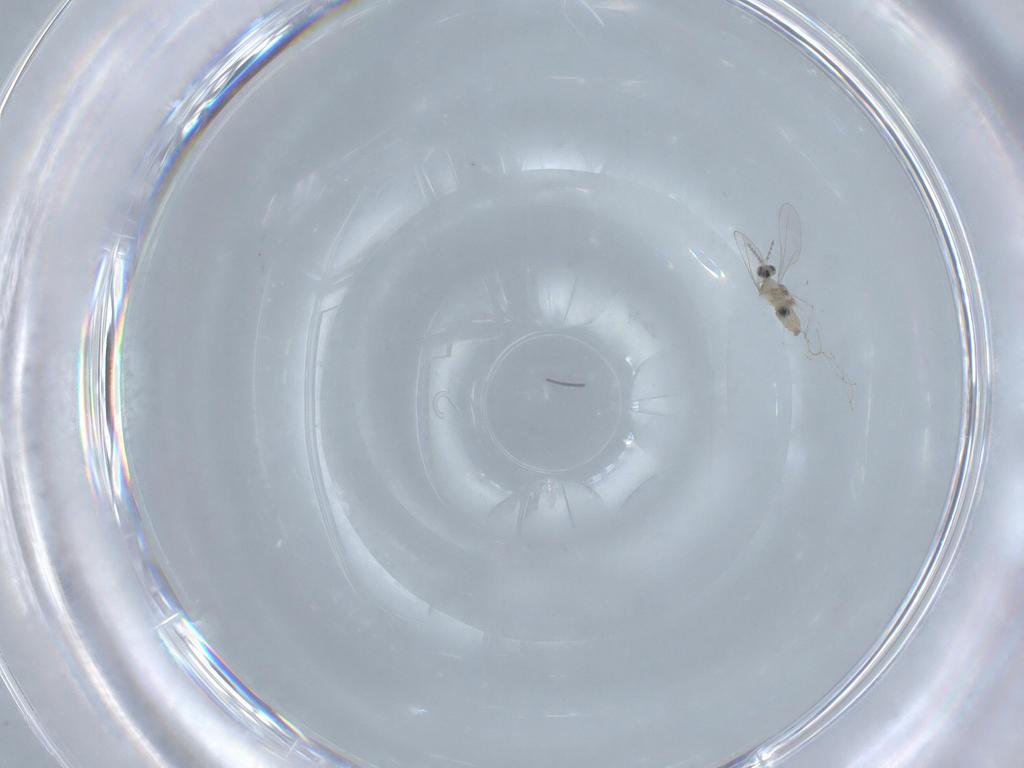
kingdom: Animalia
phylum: Arthropoda
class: Insecta
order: Diptera
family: Cecidomyiidae
